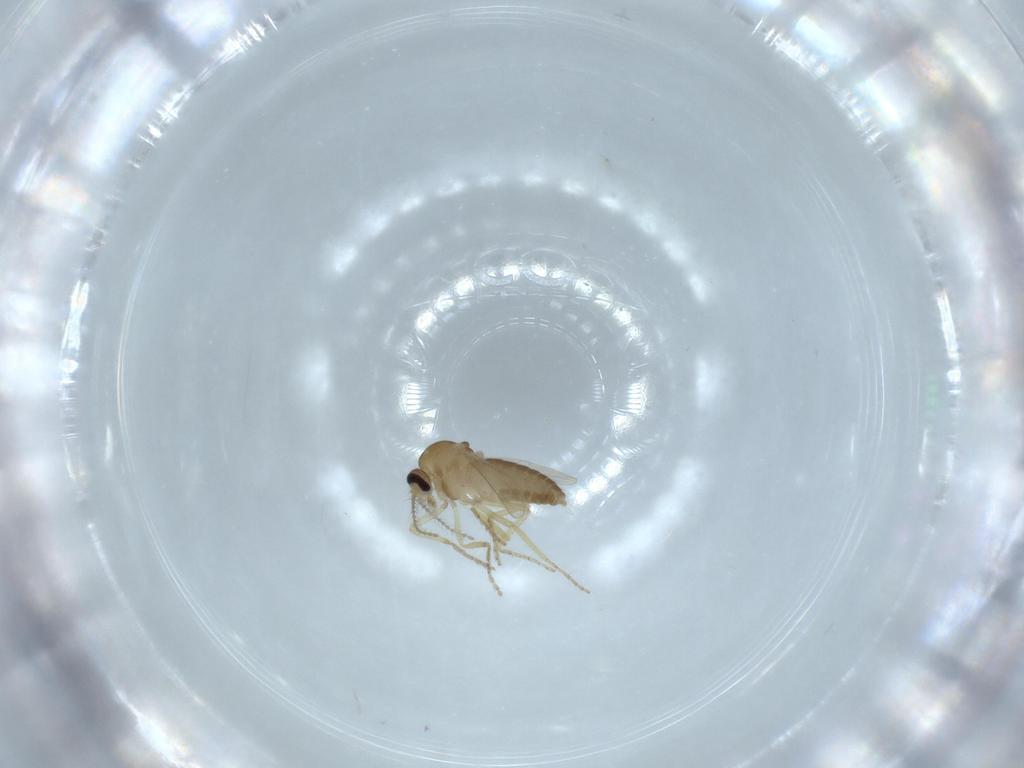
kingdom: Animalia
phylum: Arthropoda
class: Insecta
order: Diptera
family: Ceratopogonidae
